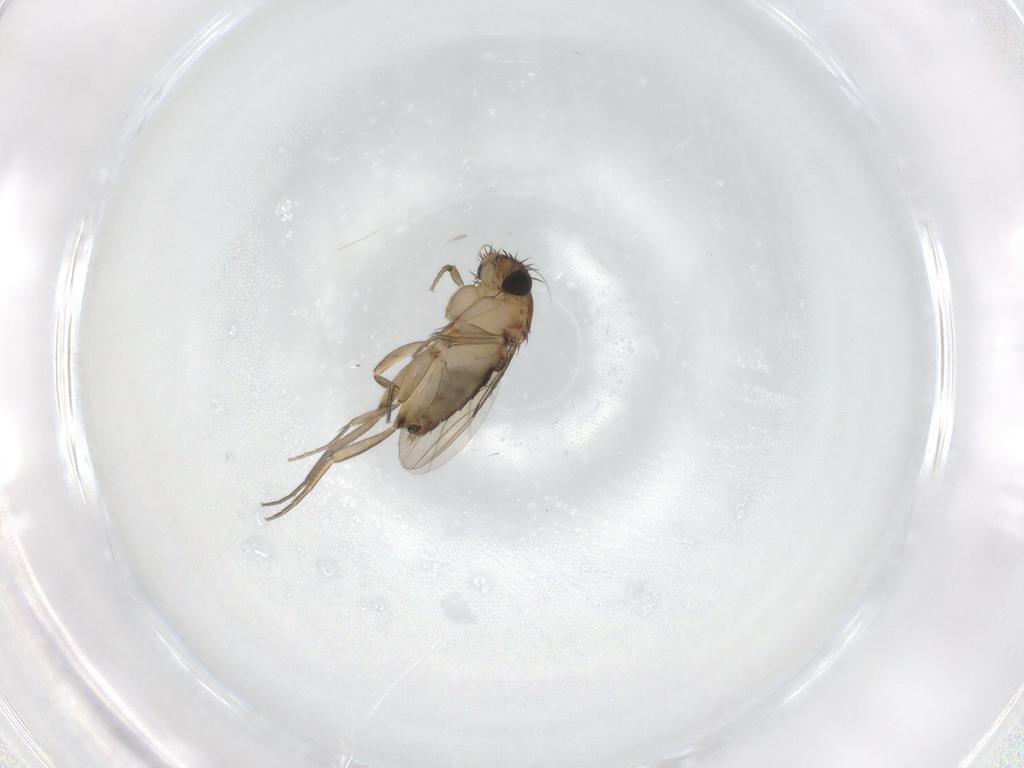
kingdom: Animalia
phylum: Arthropoda
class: Insecta
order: Diptera
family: Phoridae
